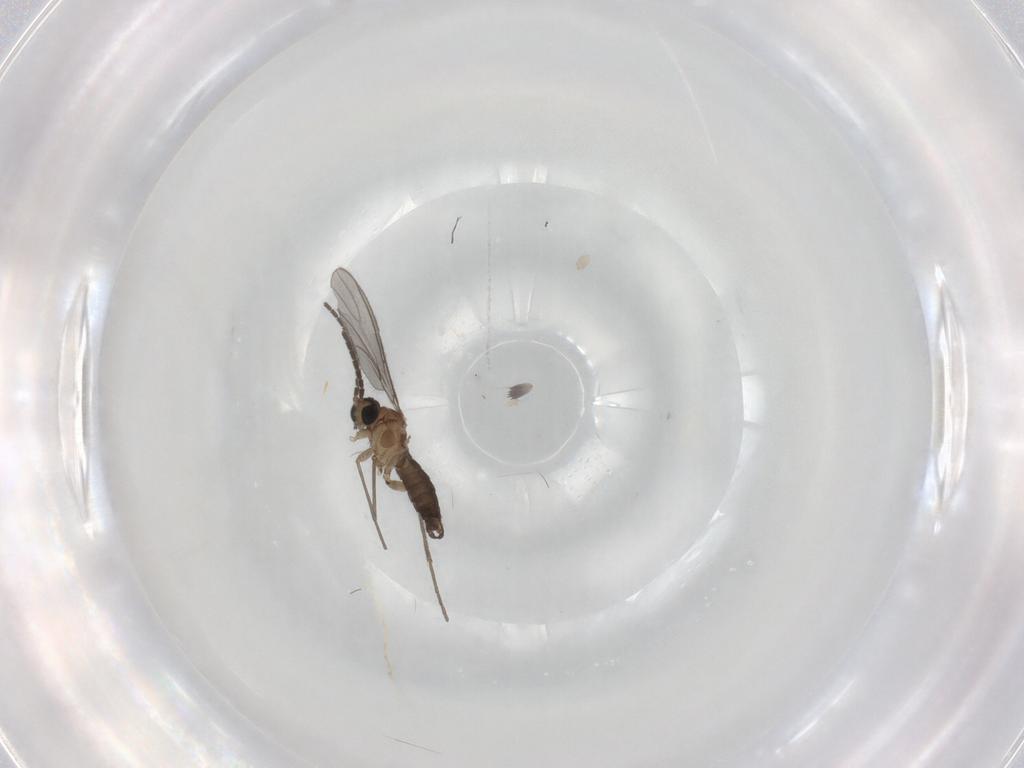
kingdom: Animalia
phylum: Arthropoda
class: Insecta
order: Diptera
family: Sciaridae
